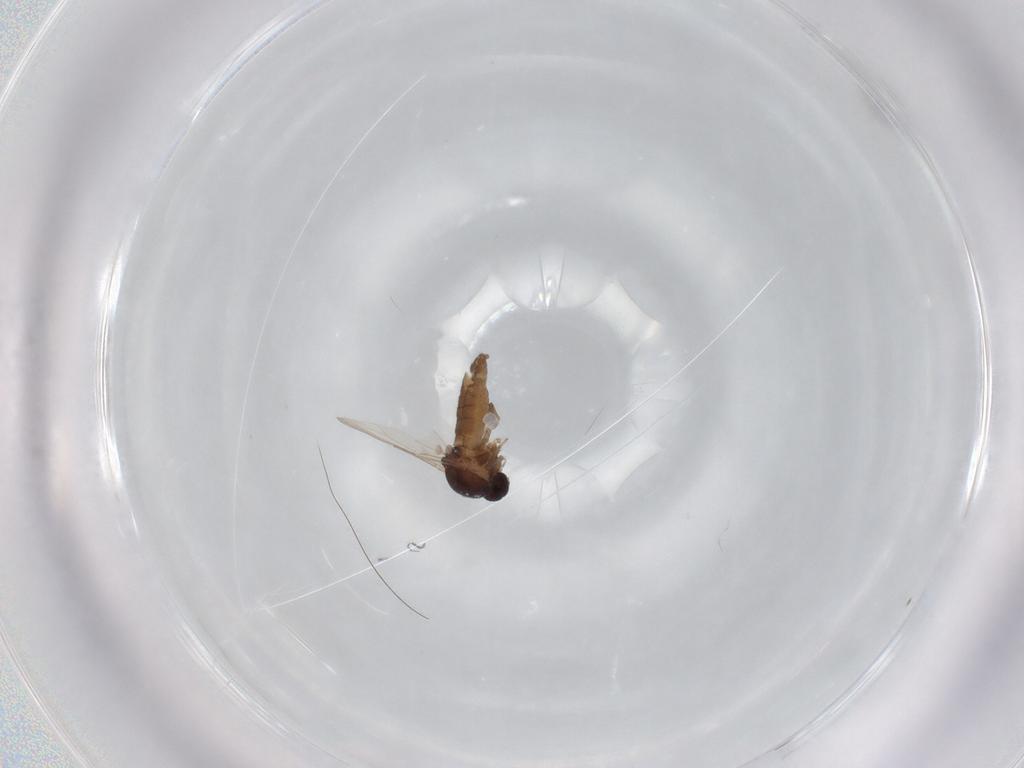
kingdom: Animalia
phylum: Arthropoda
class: Insecta
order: Diptera
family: Ceratopogonidae
